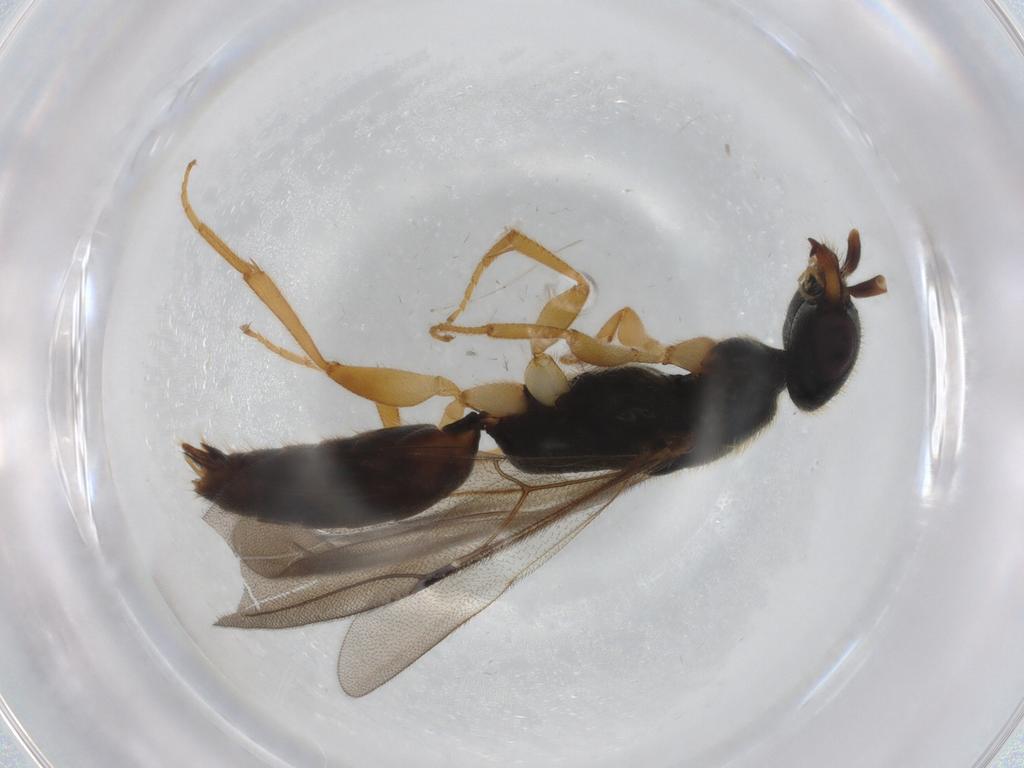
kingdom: Animalia
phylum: Arthropoda
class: Insecta
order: Hymenoptera
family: Bethylidae
